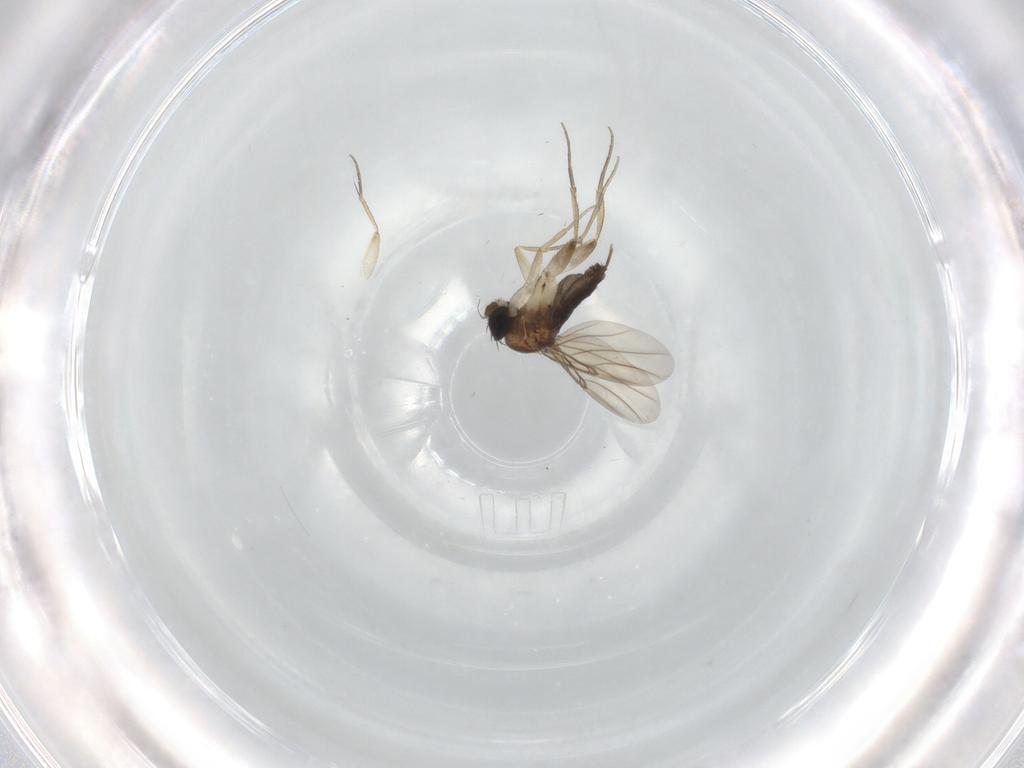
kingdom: Animalia
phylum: Arthropoda
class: Insecta
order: Diptera
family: Phoridae
